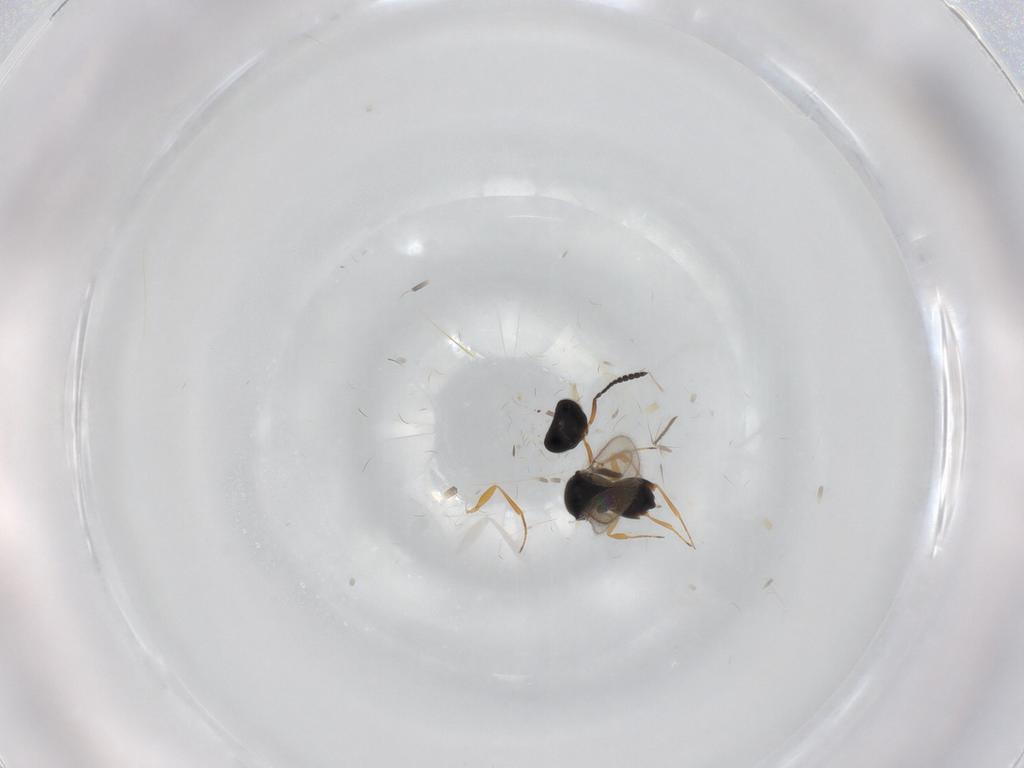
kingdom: Animalia
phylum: Arthropoda
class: Insecta
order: Hymenoptera
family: Scelionidae
